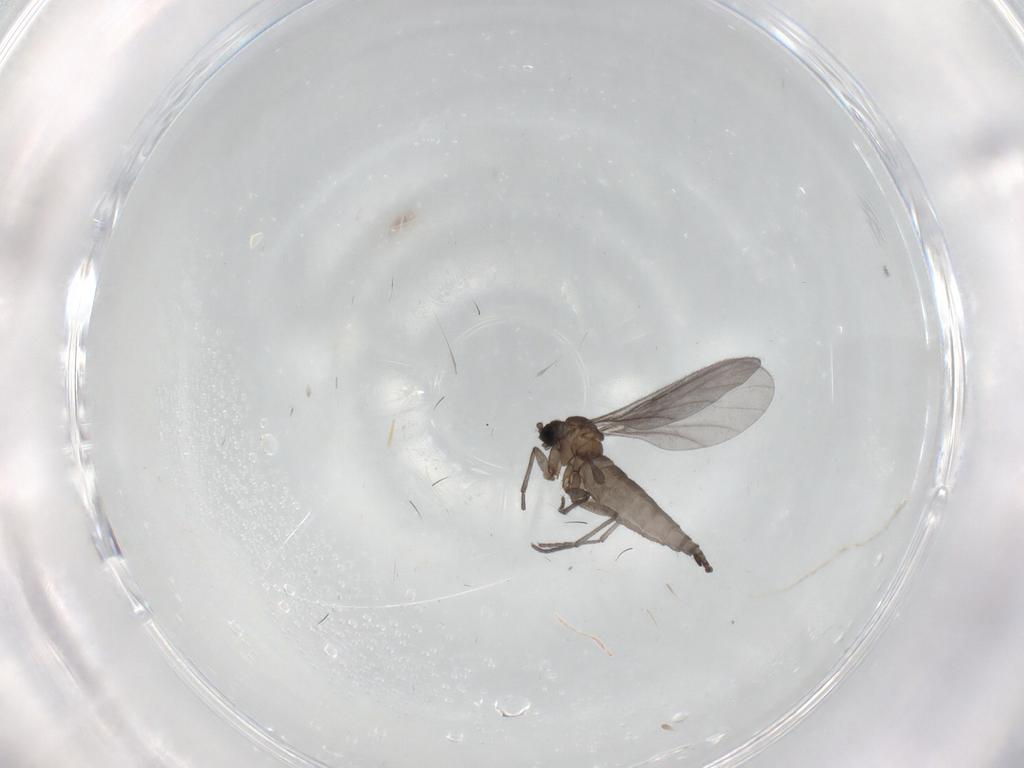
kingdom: Animalia
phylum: Arthropoda
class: Insecta
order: Diptera
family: Sciaridae
